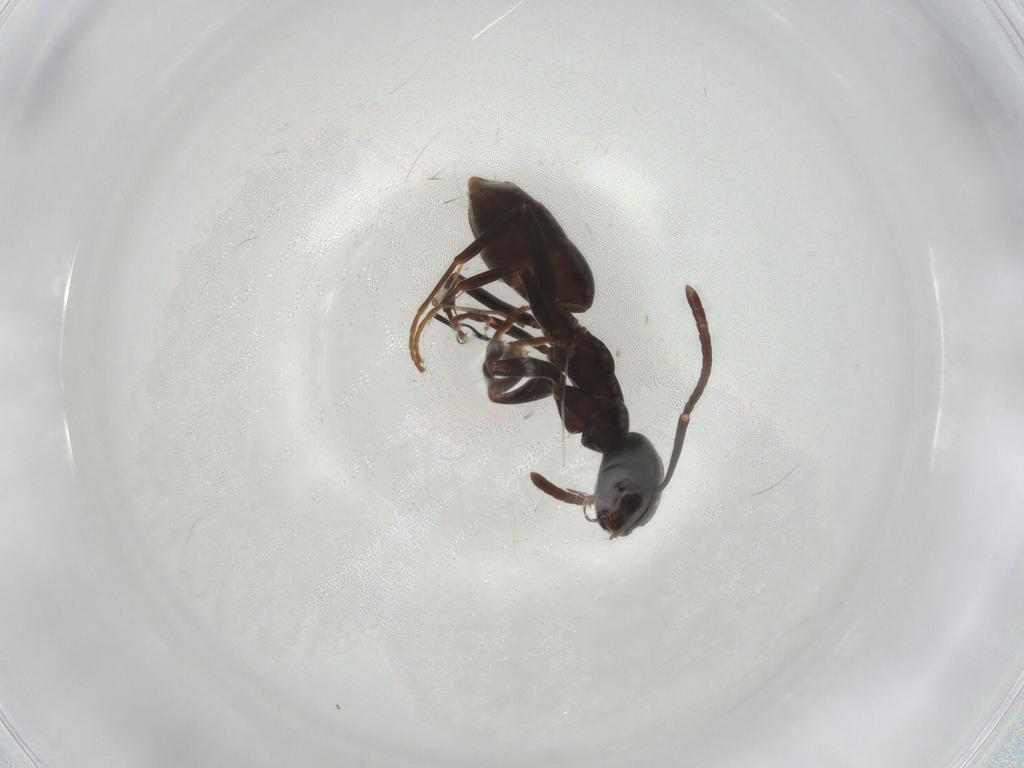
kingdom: Animalia
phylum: Arthropoda
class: Insecta
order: Hymenoptera
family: Formicidae
